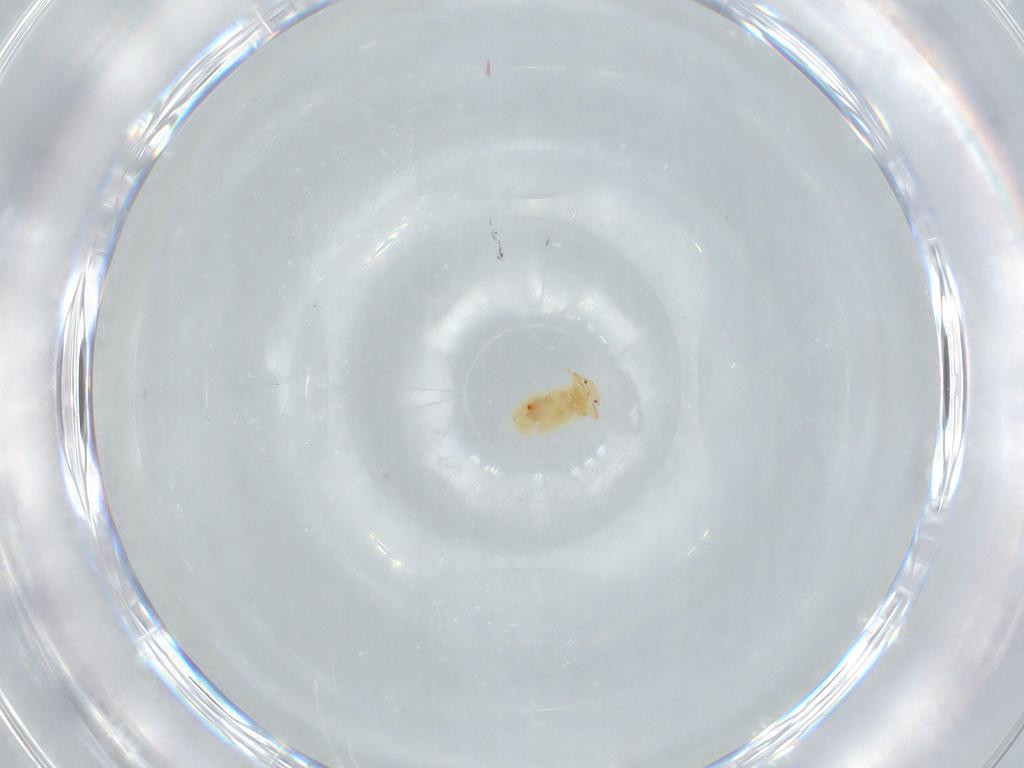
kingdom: Animalia
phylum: Arthropoda
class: Insecta
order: Hemiptera
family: Pseudococcidae
